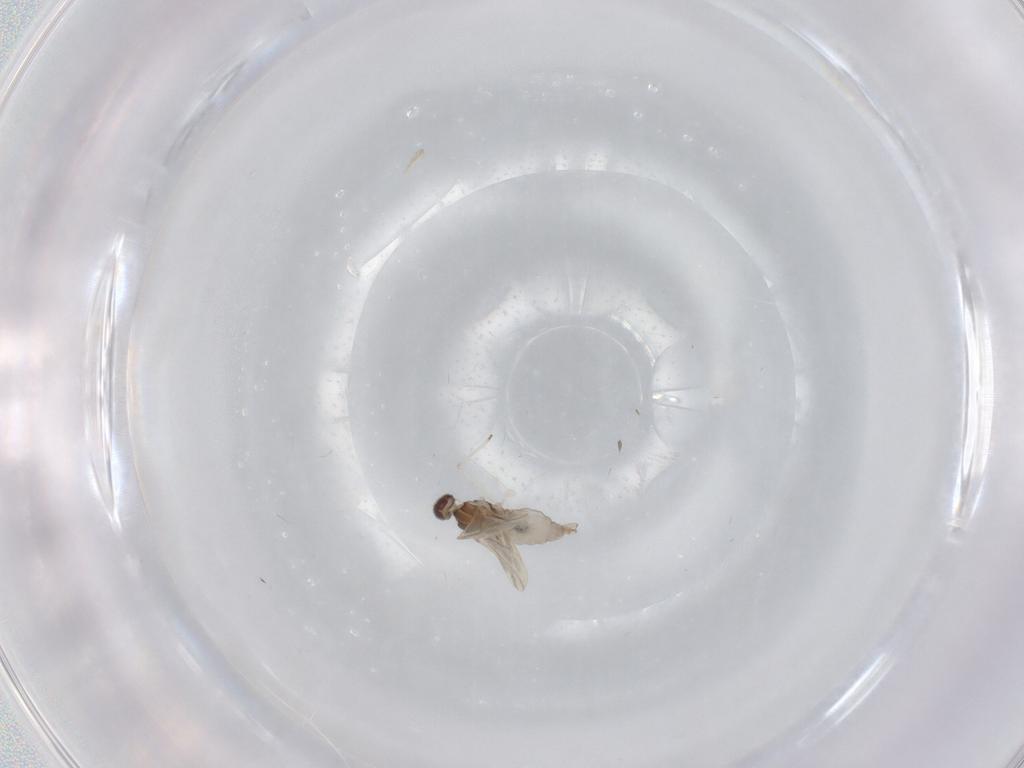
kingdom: Animalia
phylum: Arthropoda
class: Insecta
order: Diptera
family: Cecidomyiidae
